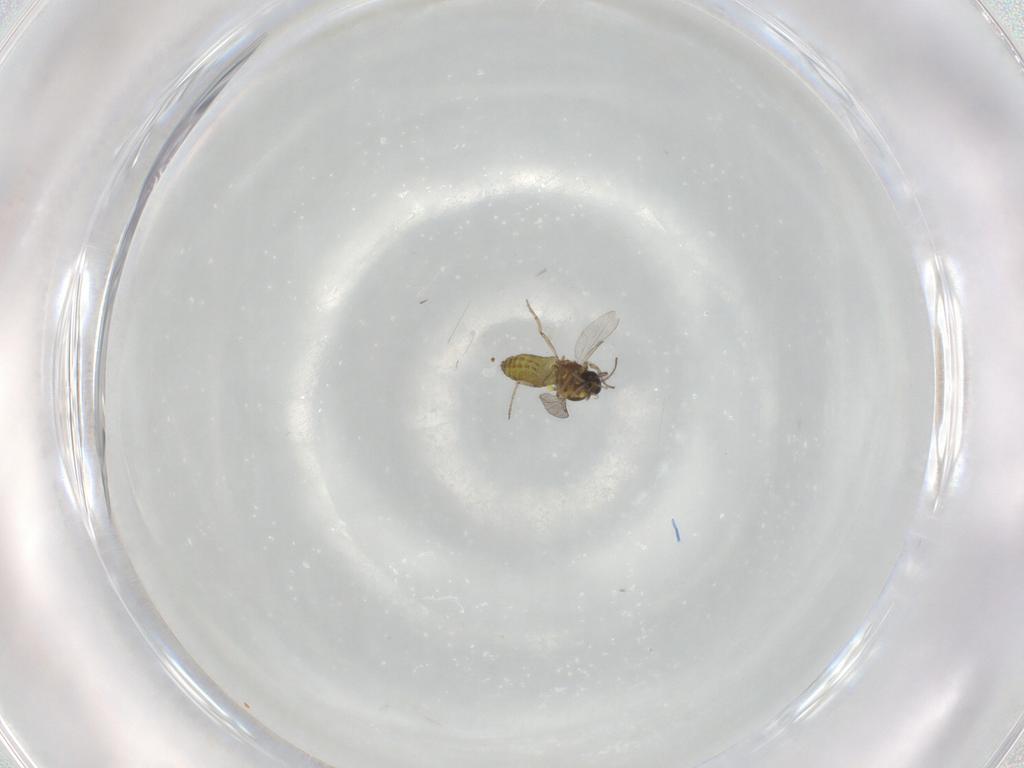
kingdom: Animalia
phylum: Arthropoda
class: Insecta
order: Diptera
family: Ceratopogonidae
